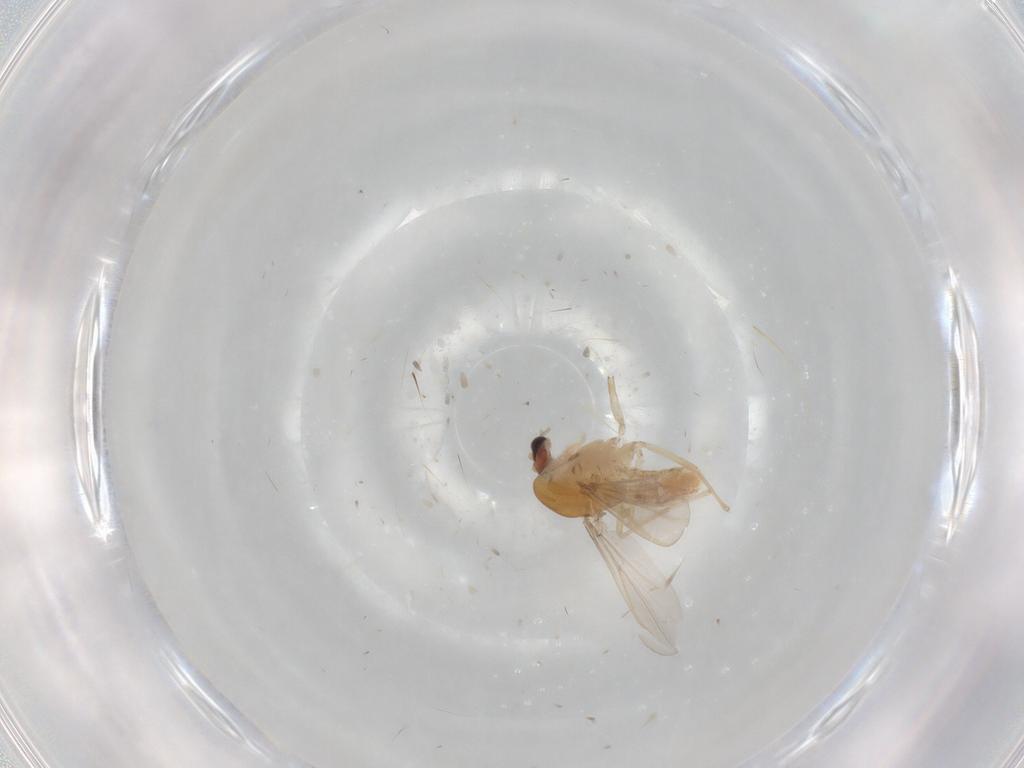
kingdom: Animalia
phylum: Arthropoda
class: Insecta
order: Diptera
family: Chironomidae
